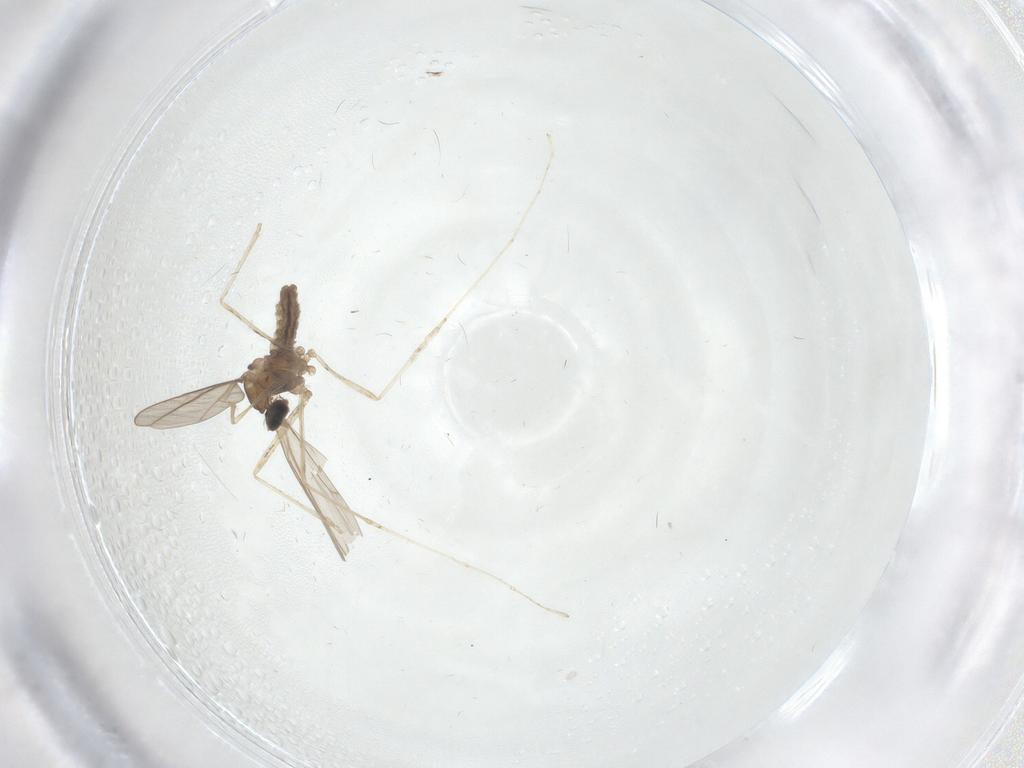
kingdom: Animalia
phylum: Arthropoda
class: Insecta
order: Diptera
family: Cecidomyiidae
